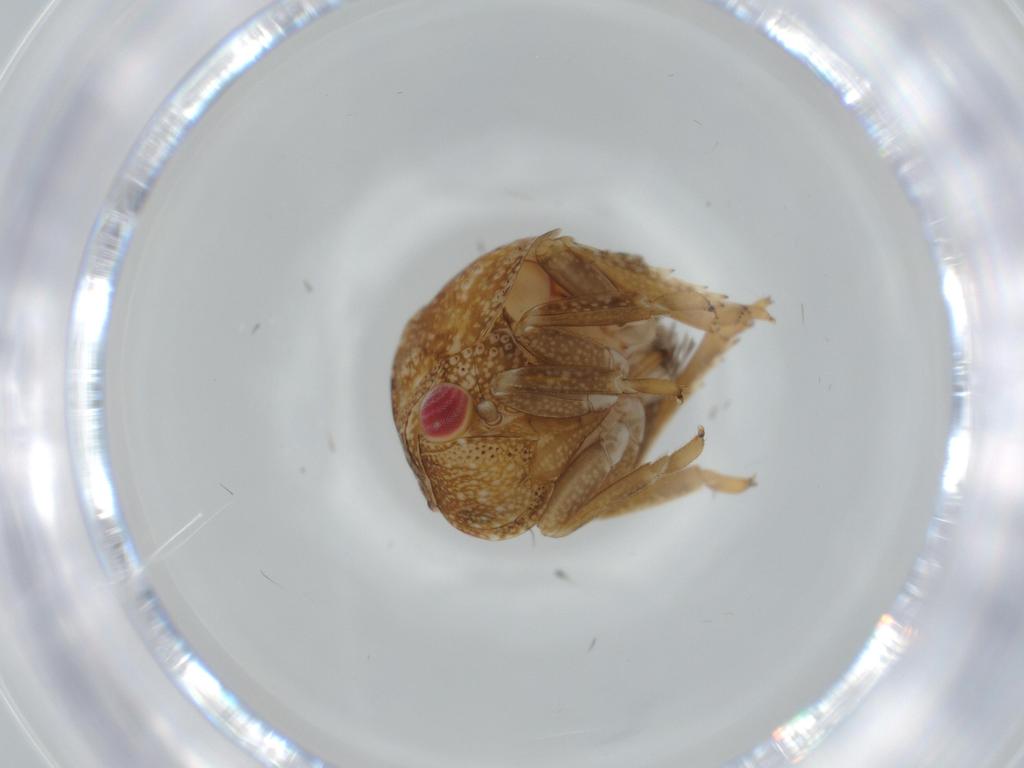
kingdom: Animalia
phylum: Arthropoda
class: Insecta
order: Hemiptera
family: Acanaloniidae
